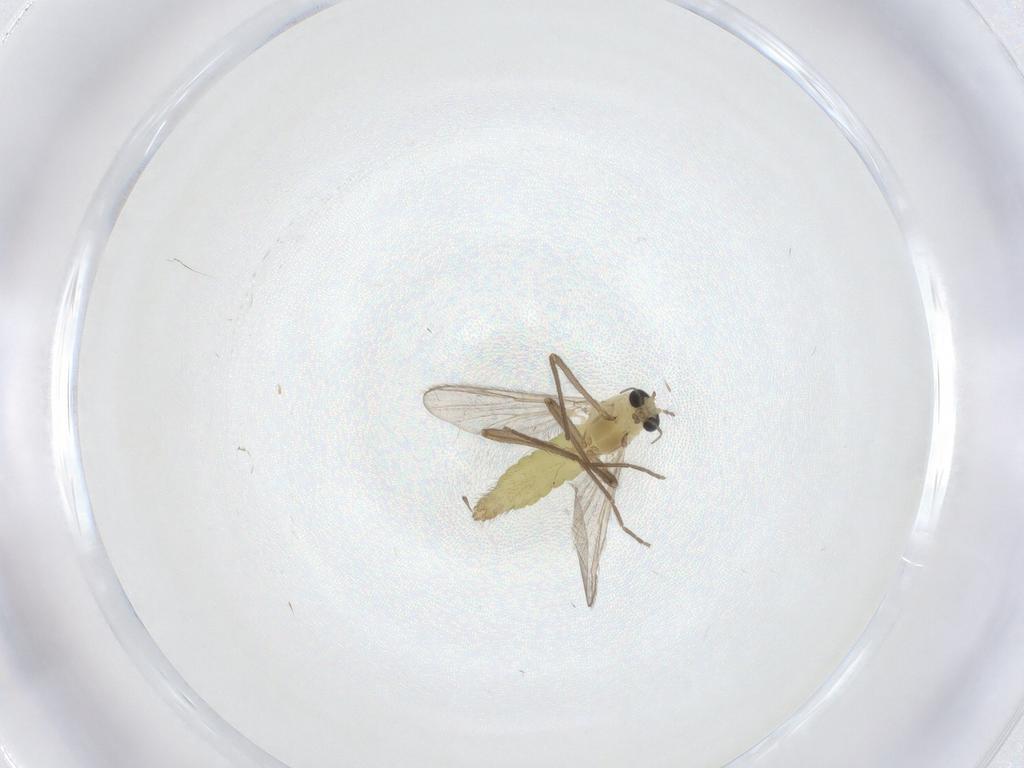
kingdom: Animalia
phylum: Arthropoda
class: Insecta
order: Diptera
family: Chironomidae
